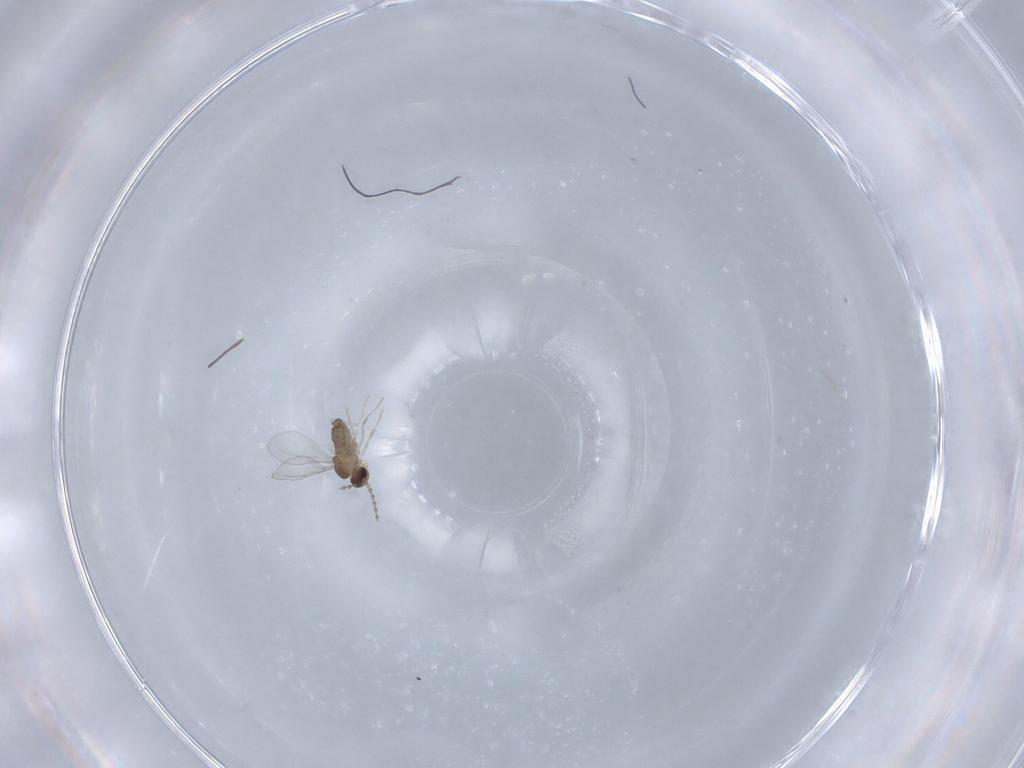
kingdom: Animalia
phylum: Arthropoda
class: Insecta
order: Diptera
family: Cecidomyiidae
